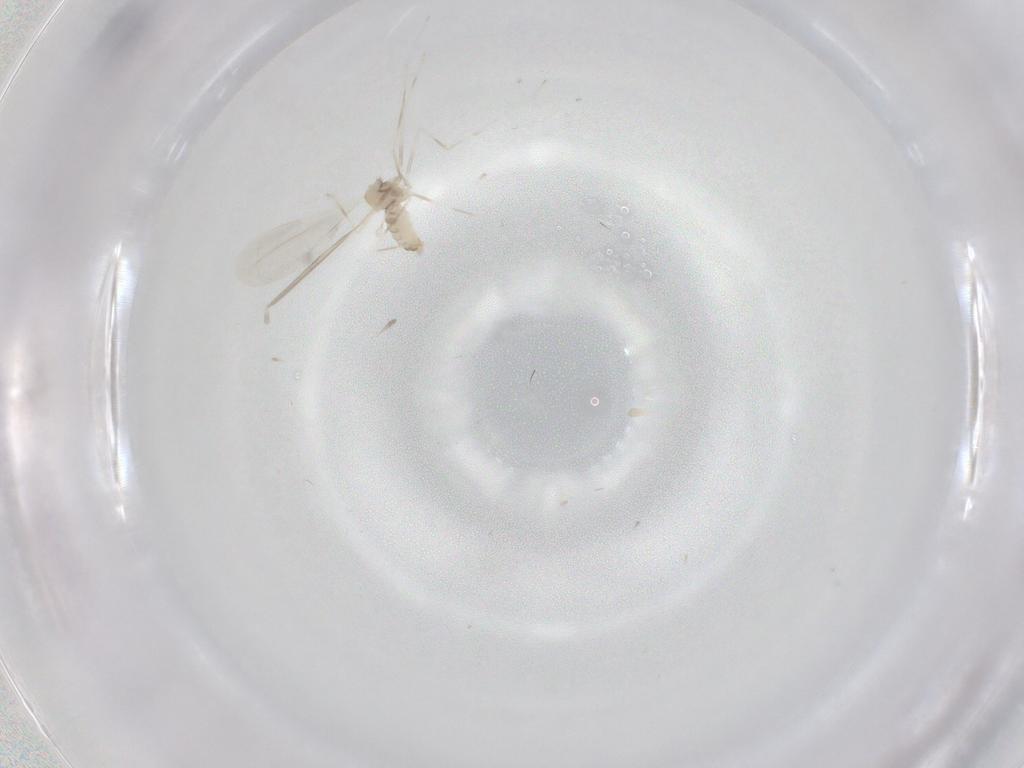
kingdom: Animalia
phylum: Arthropoda
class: Insecta
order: Diptera
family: Cecidomyiidae
